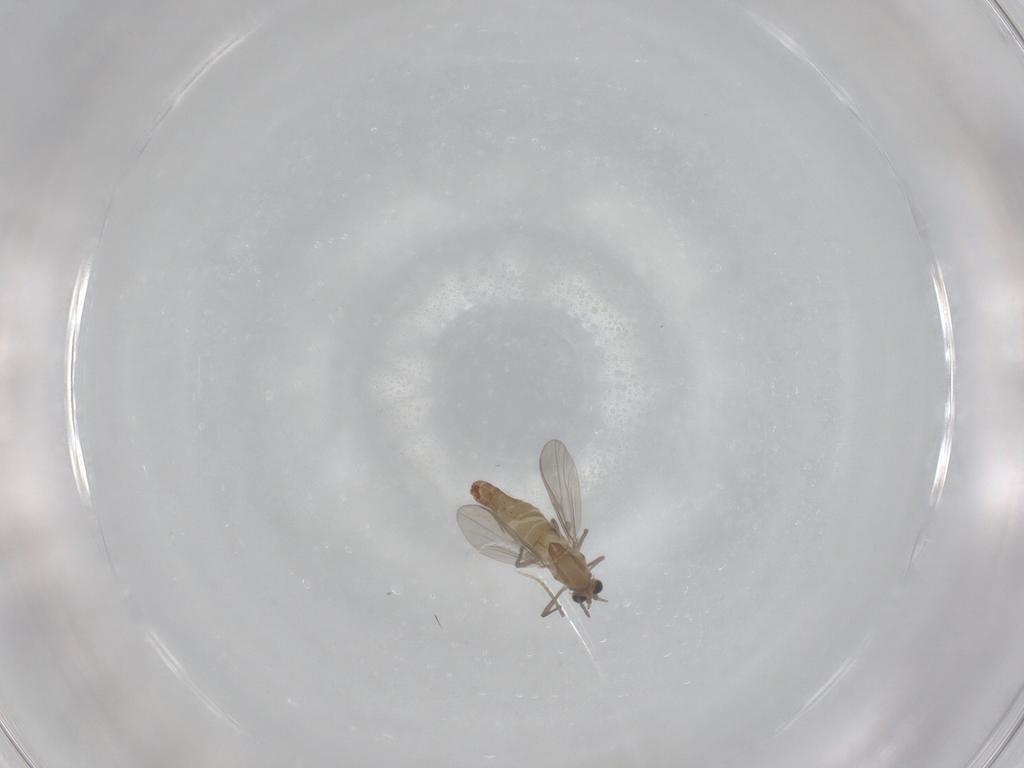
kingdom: Animalia
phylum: Arthropoda
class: Insecta
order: Diptera
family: Chironomidae
